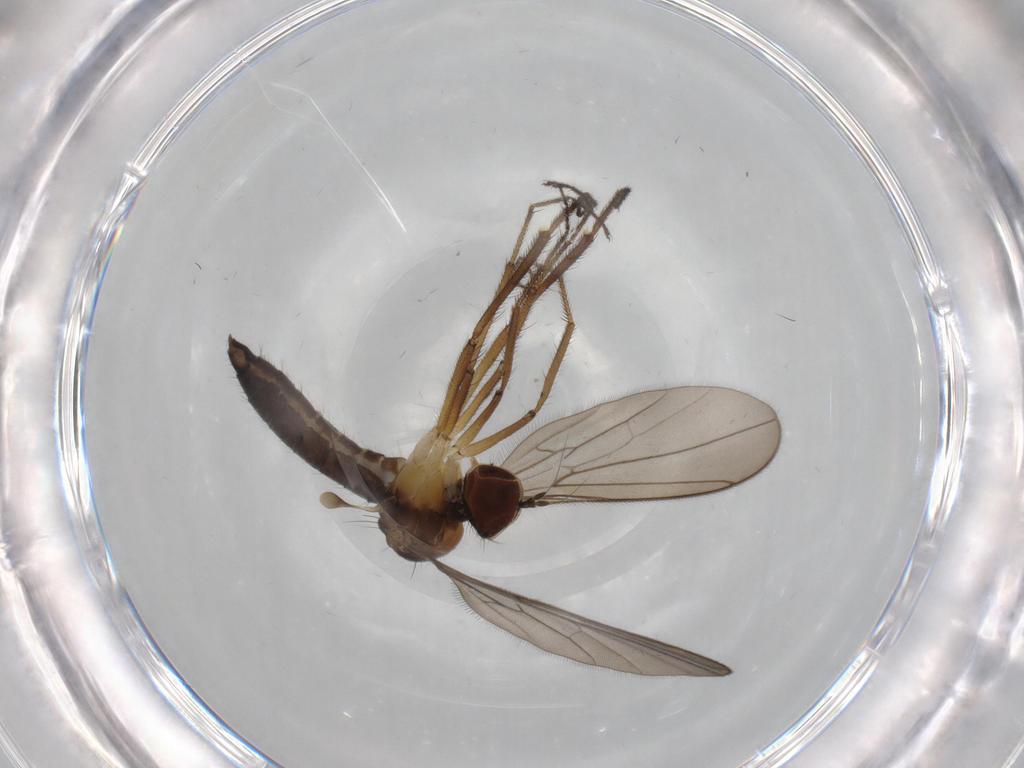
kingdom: Animalia
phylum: Arthropoda
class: Insecta
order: Diptera
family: Hybotidae
